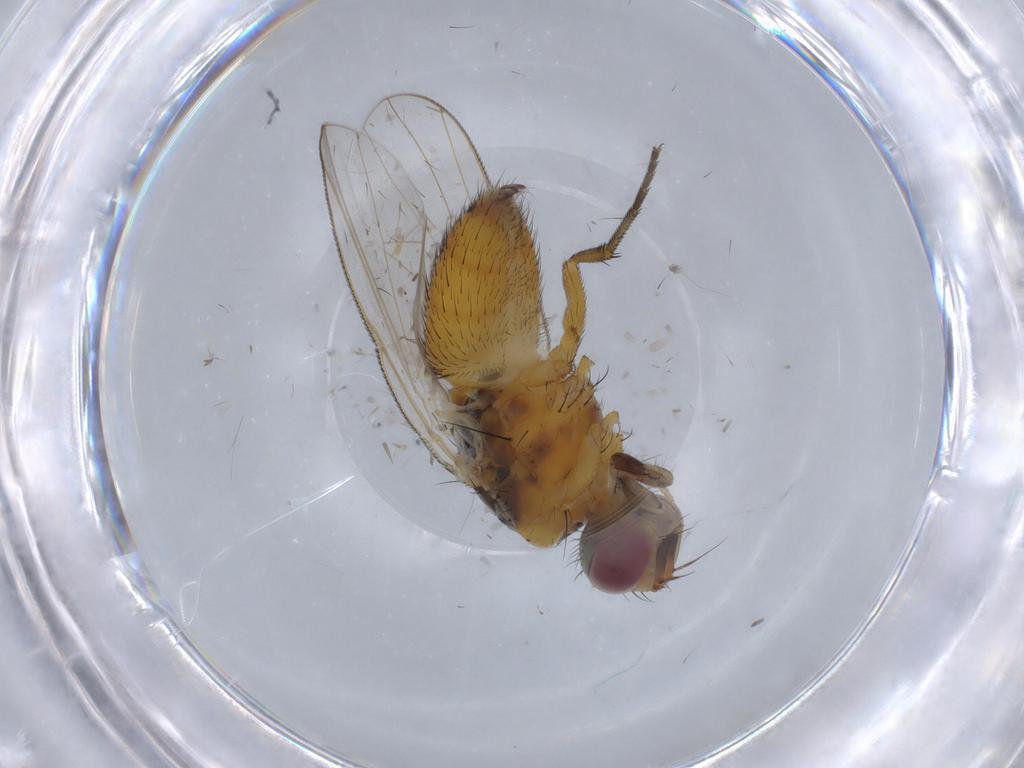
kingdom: Animalia
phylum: Arthropoda
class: Insecta
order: Diptera
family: Muscidae
